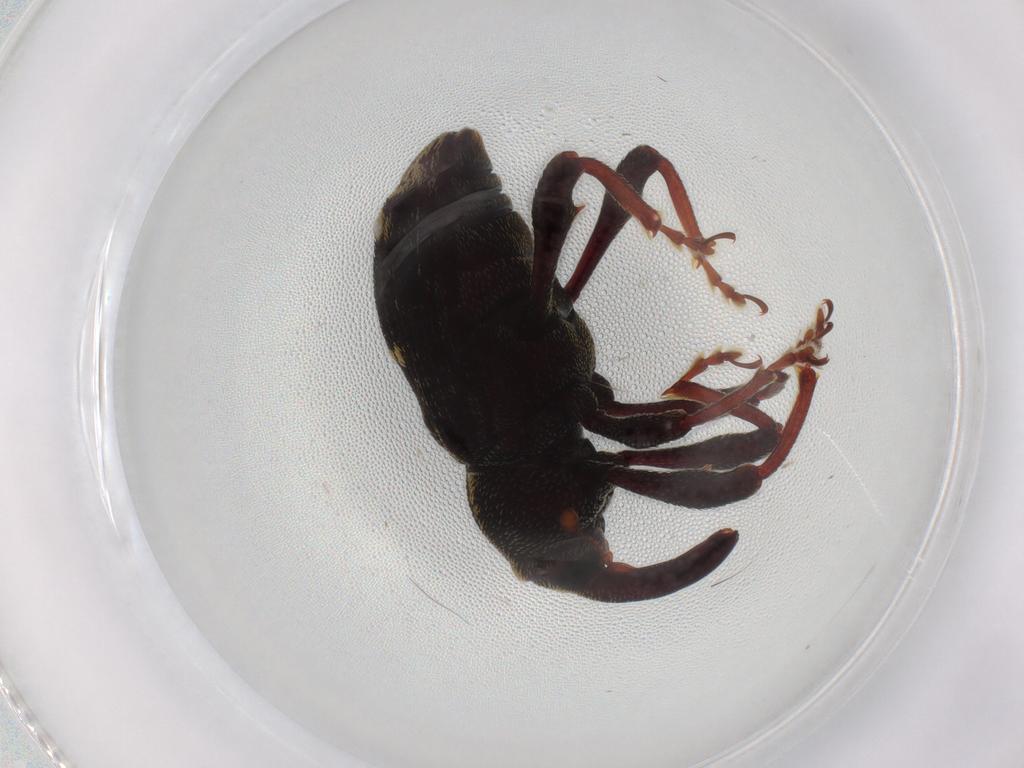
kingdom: Animalia
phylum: Arthropoda
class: Insecta
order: Coleoptera
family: Curculionidae
